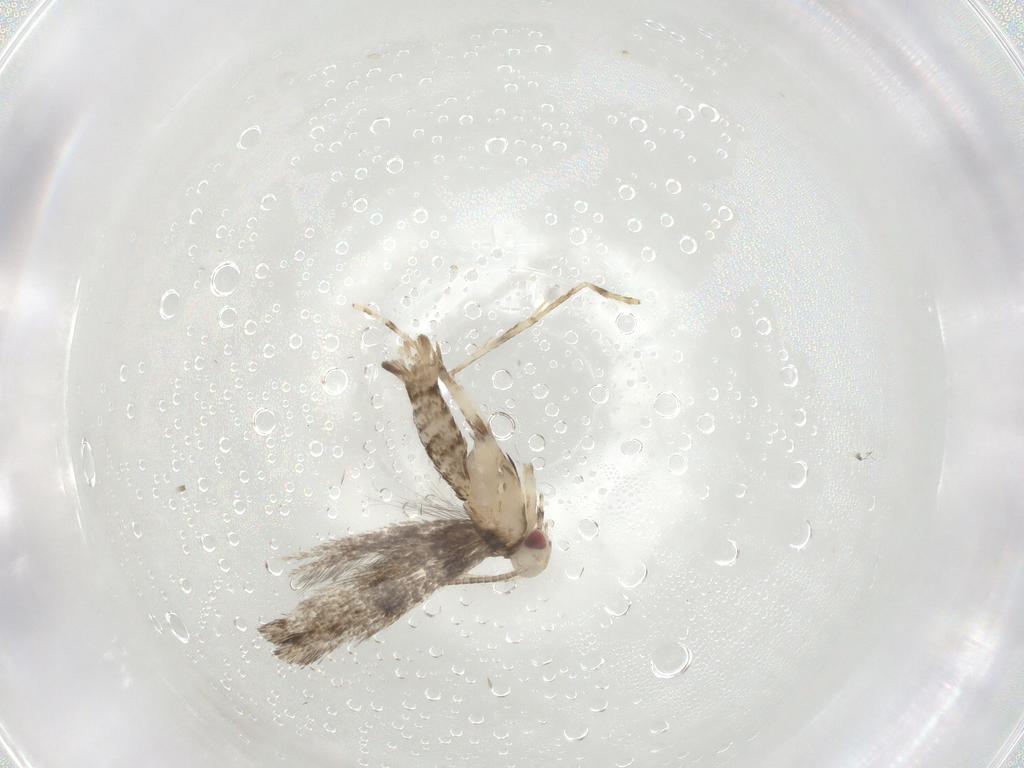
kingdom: Animalia
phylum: Arthropoda
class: Insecta
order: Lepidoptera
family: Gracillariidae
